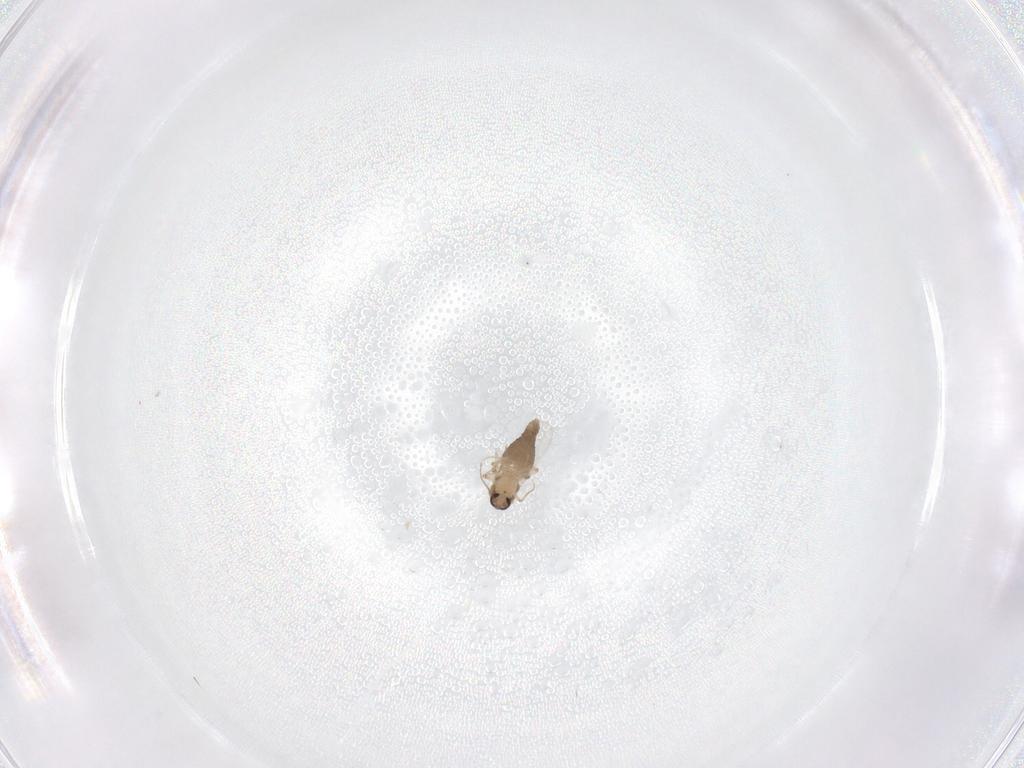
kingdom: Animalia
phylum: Arthropoda
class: Insecta
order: Diptera
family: Ceratopogonidae
